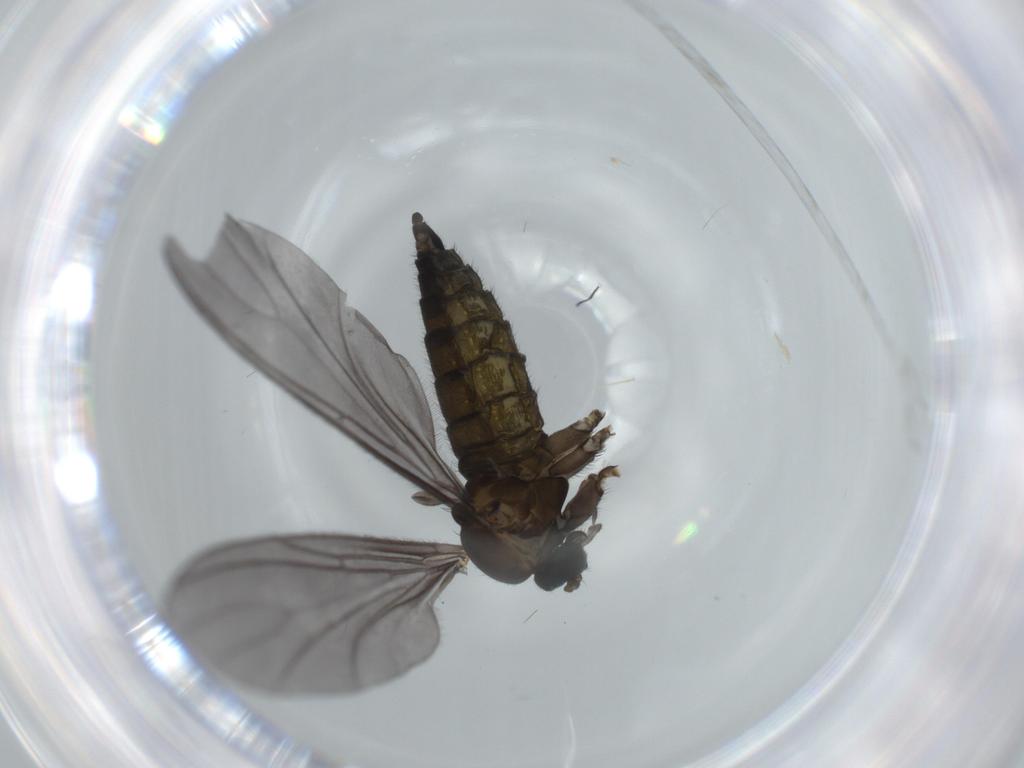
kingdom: Animalia
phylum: Arthropoda
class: Insecta
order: Diptera
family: Sciaridae
